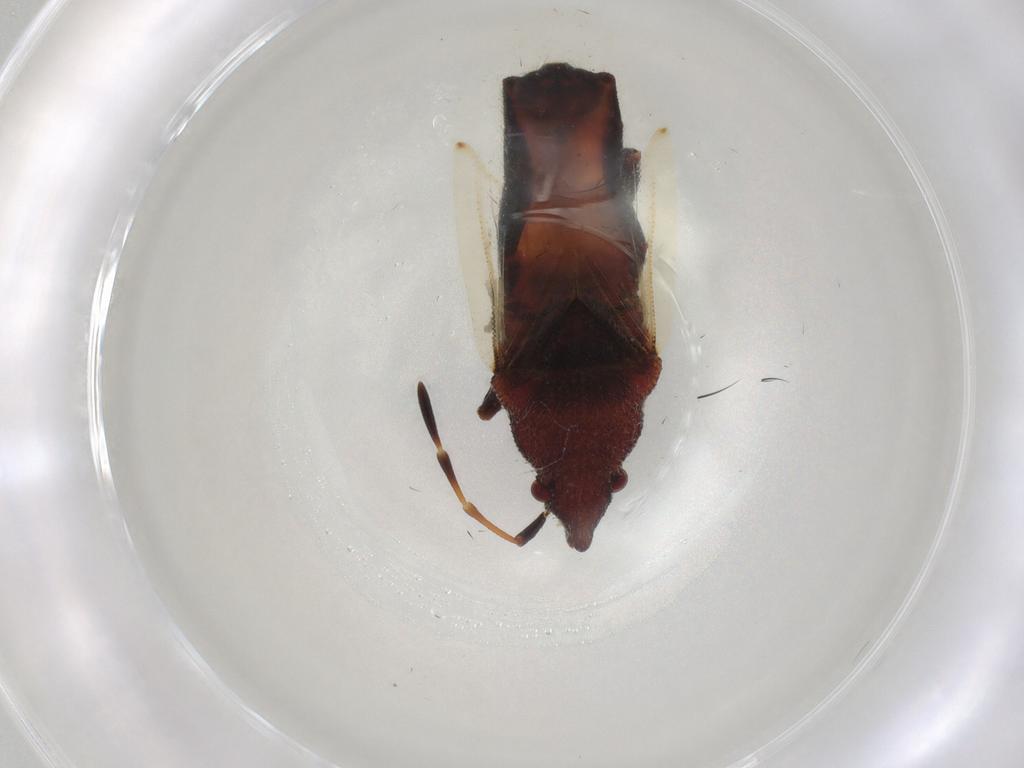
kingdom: Animalia
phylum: Arthropoda
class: Insecta
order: Hemiptera
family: Oxycarenidae
